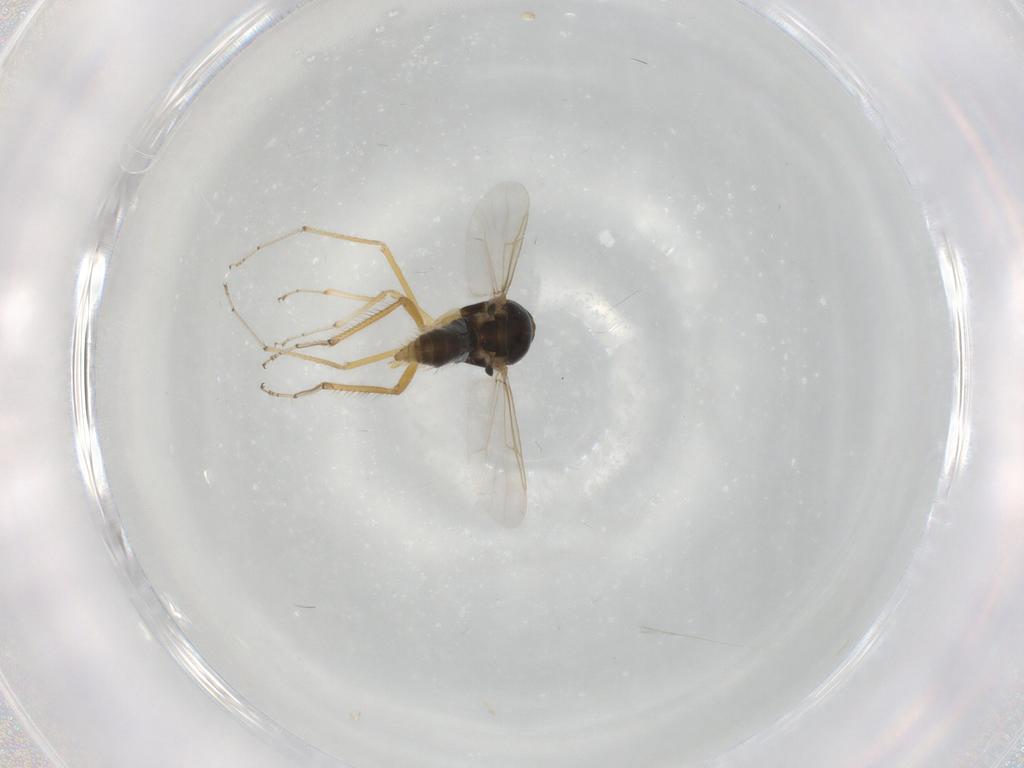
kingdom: Animalia
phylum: Arthropoda
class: Insecta
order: Diptera
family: Ceratopogonidae
